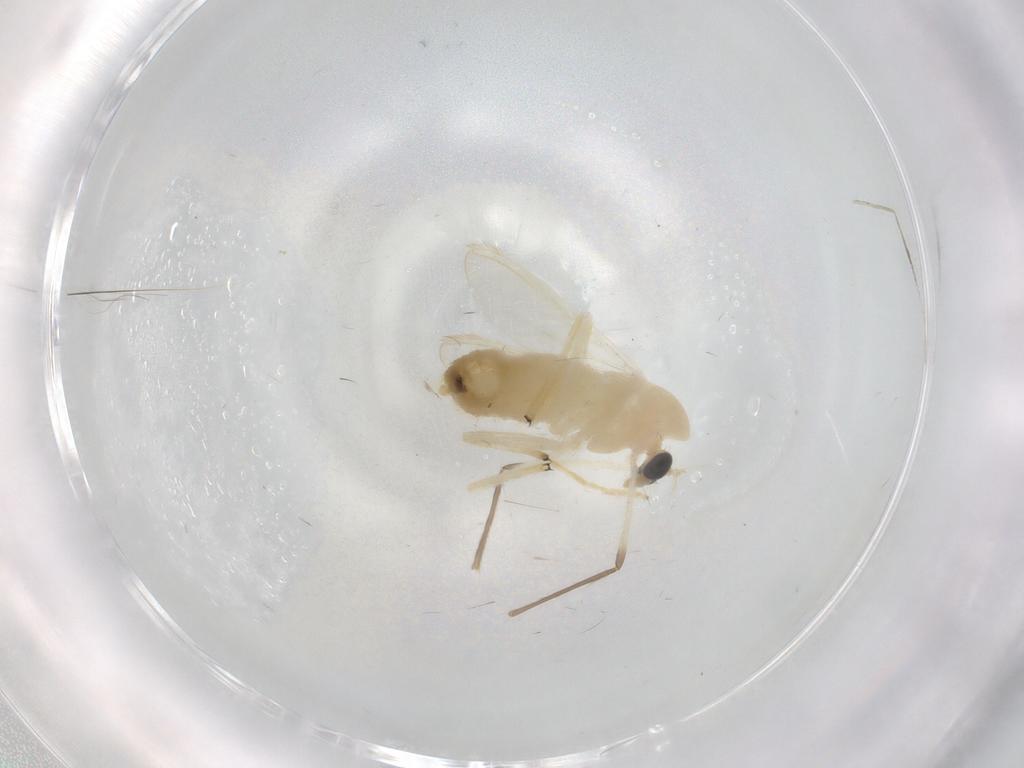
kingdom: Animalia
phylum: Arthropoda
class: Insecta
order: Diptera
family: Chironomidae
